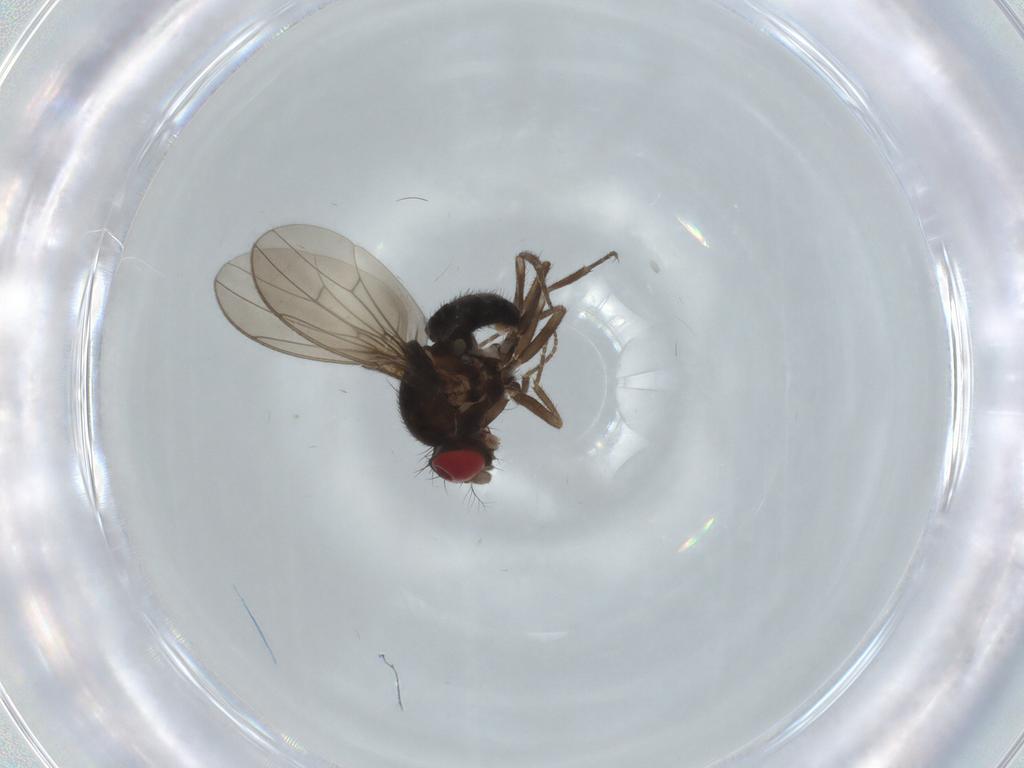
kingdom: Animalia
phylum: Arthropoda
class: Insecta
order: Diptera
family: Drosophilidae
